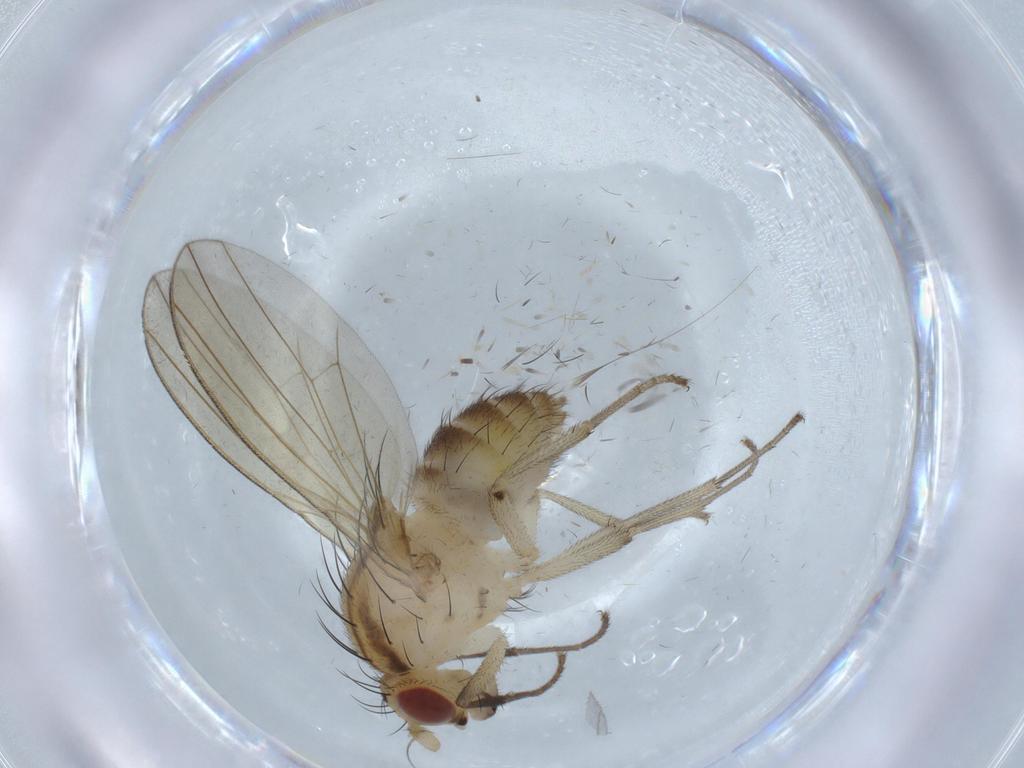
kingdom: Animalia
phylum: Arthropoda
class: Insecta
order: Diptera
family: Lauxaniidae
